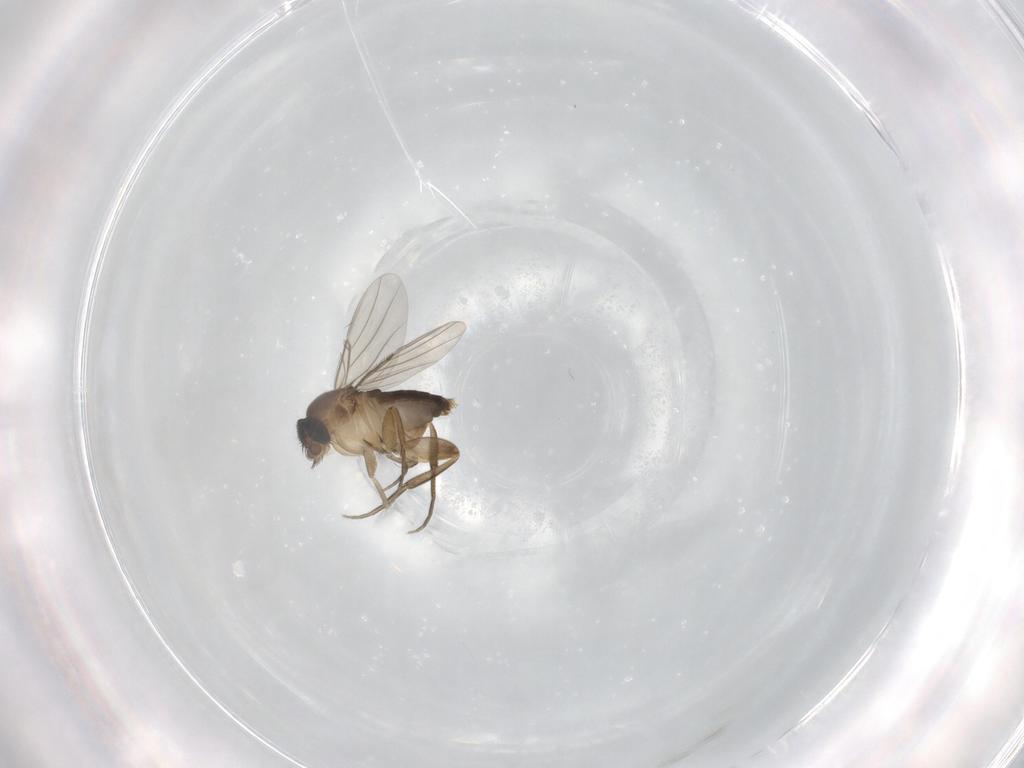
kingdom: Animalia
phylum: Arthropoda
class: Insecta
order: Diptera
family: Phoridae
